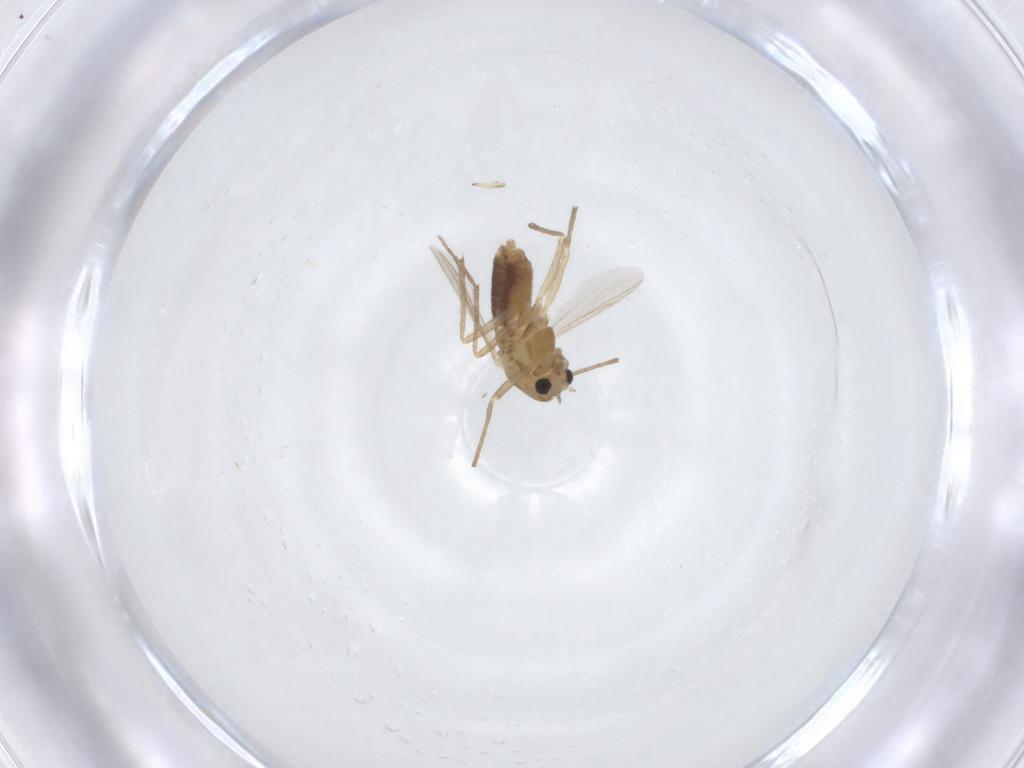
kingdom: Animalia
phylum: Arthropoda
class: Insecta
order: Diptera
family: Chironomidae
